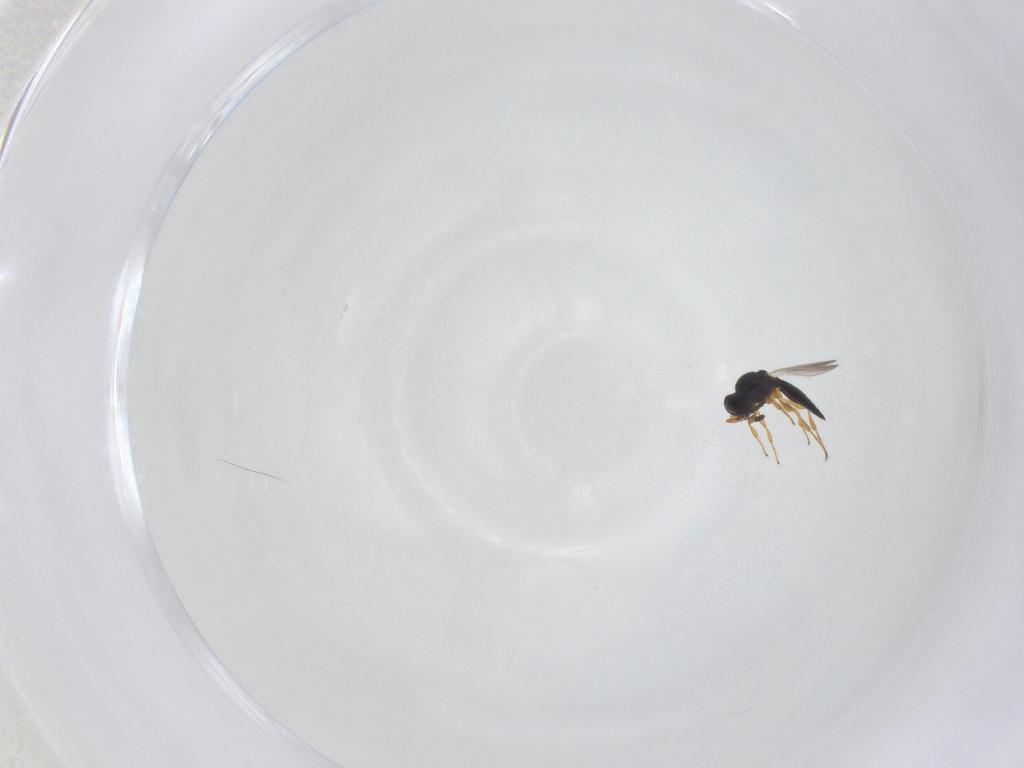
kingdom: Animalia
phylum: Arthropoda
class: Insecta
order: Hymenoptera
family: Platygastridae
